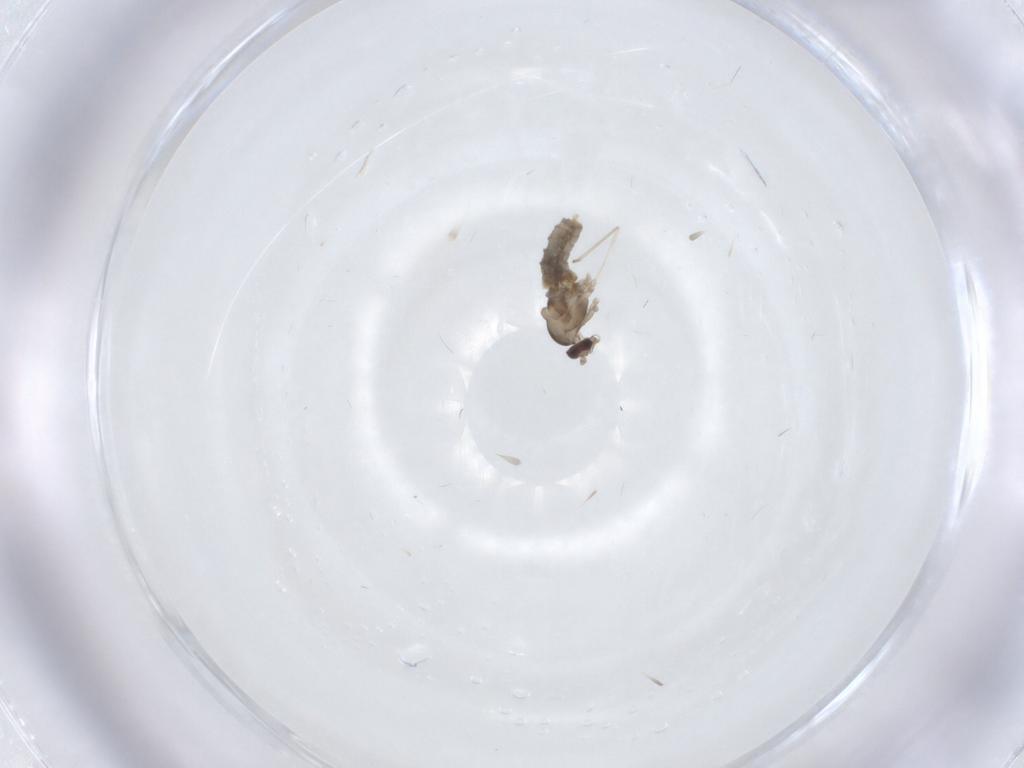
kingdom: Animalia
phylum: Arthropoda
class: Insecta
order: Diptera
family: Cecidomyiidae
